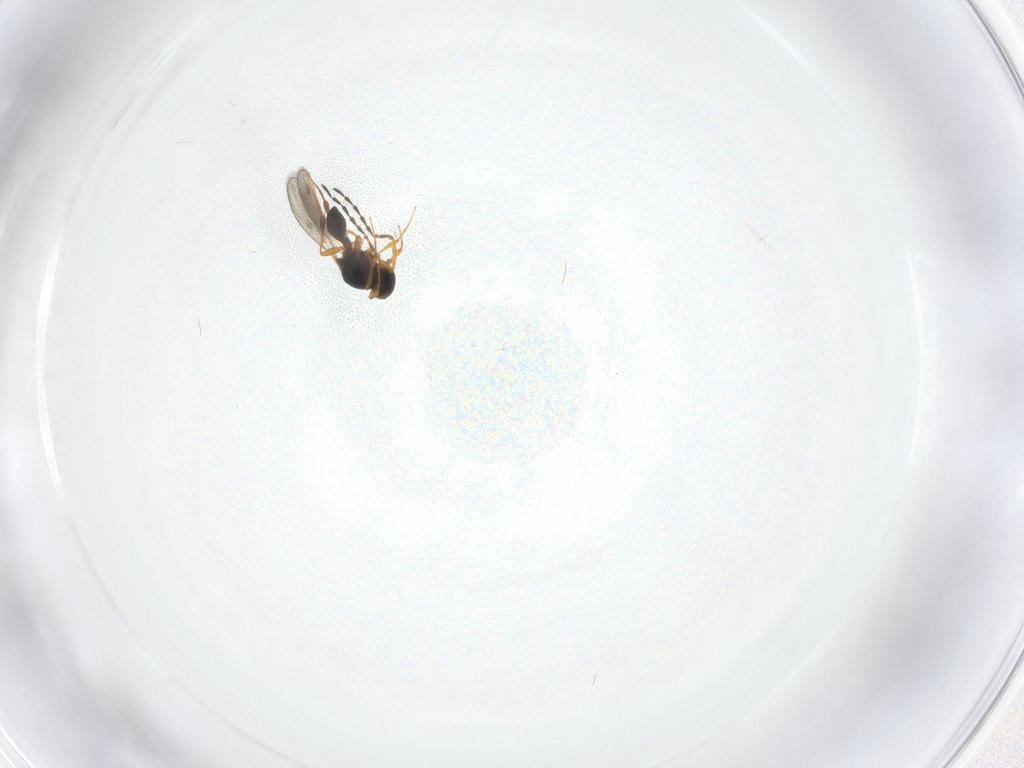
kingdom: Animalia
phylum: Arthropoda
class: Insecta
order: Hymenoptera
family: Platygastridae
